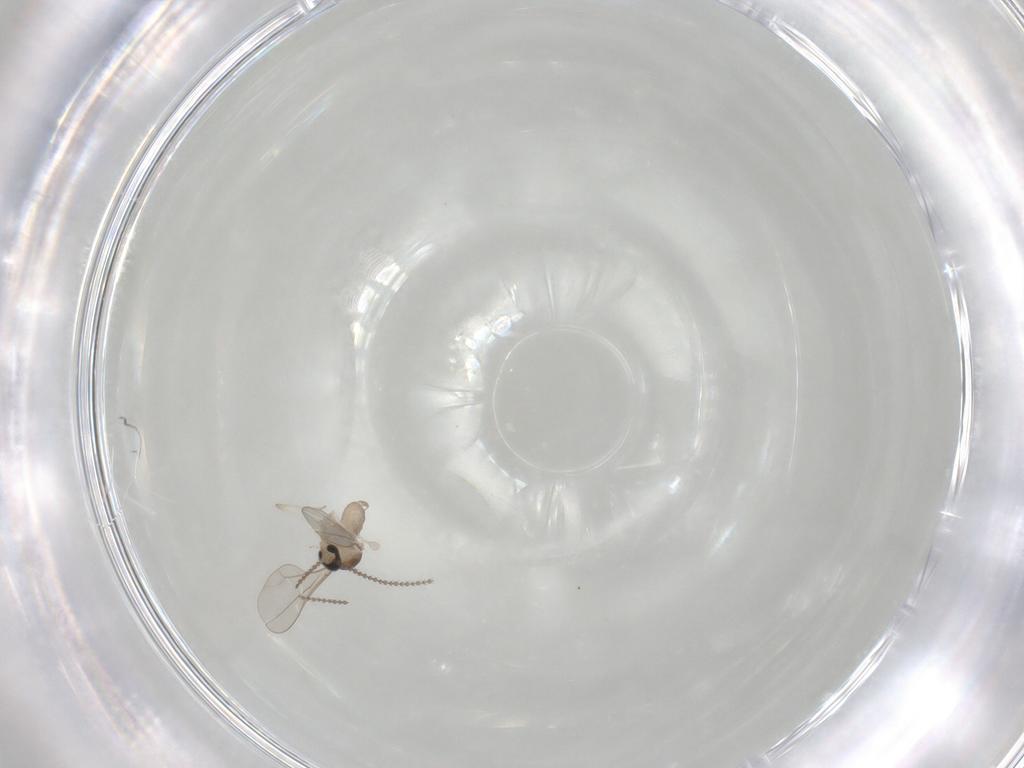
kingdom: Animalia
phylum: Arthropoda
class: Insecta
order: Diptera
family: Cecidomyiidae
